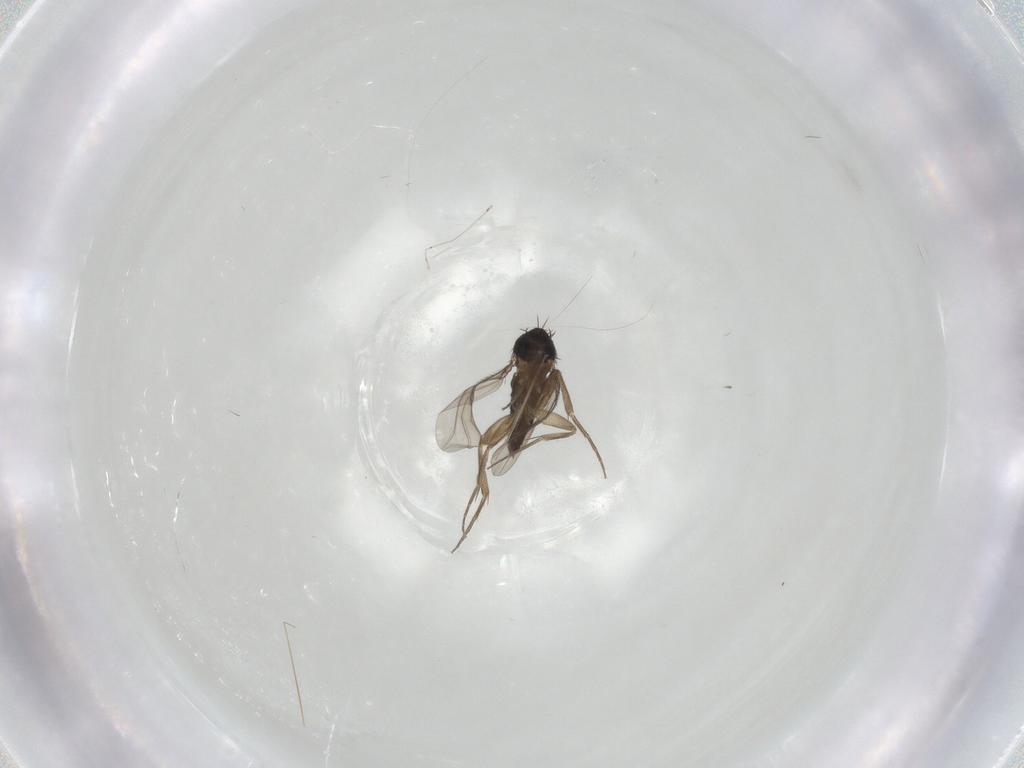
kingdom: Animalia
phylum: Arthropoda
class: Insecta
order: Diptera
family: Phoridae
